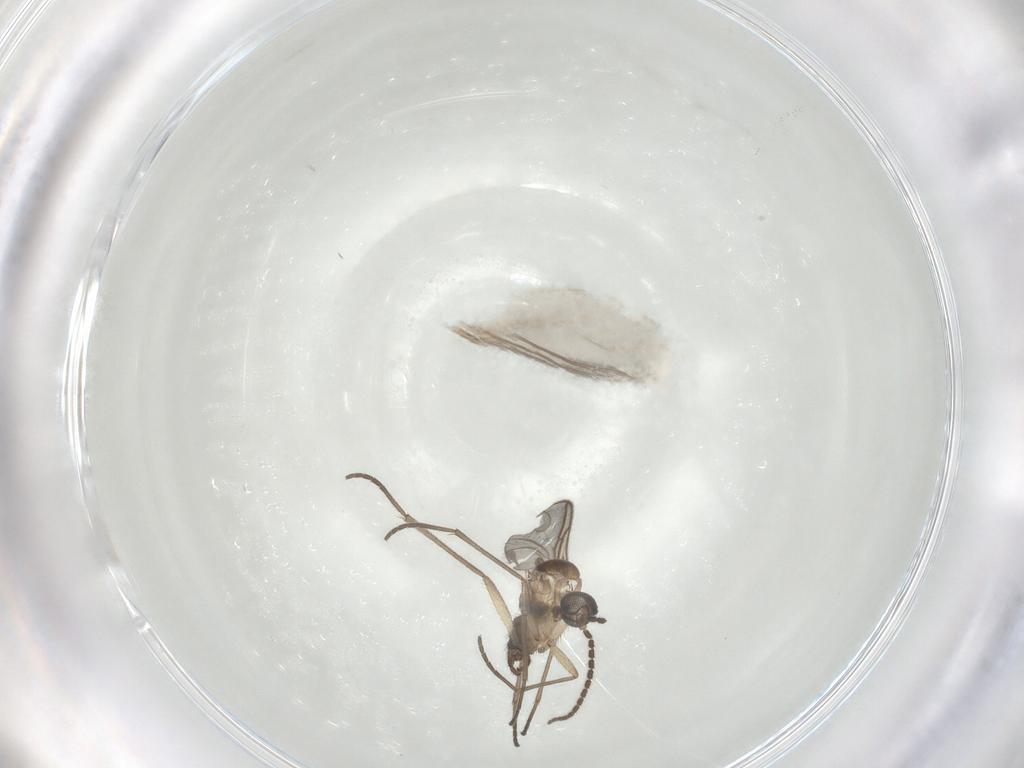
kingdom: Animalia
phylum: Arthropoda
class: Insecta
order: Diptera
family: Sciaridae
